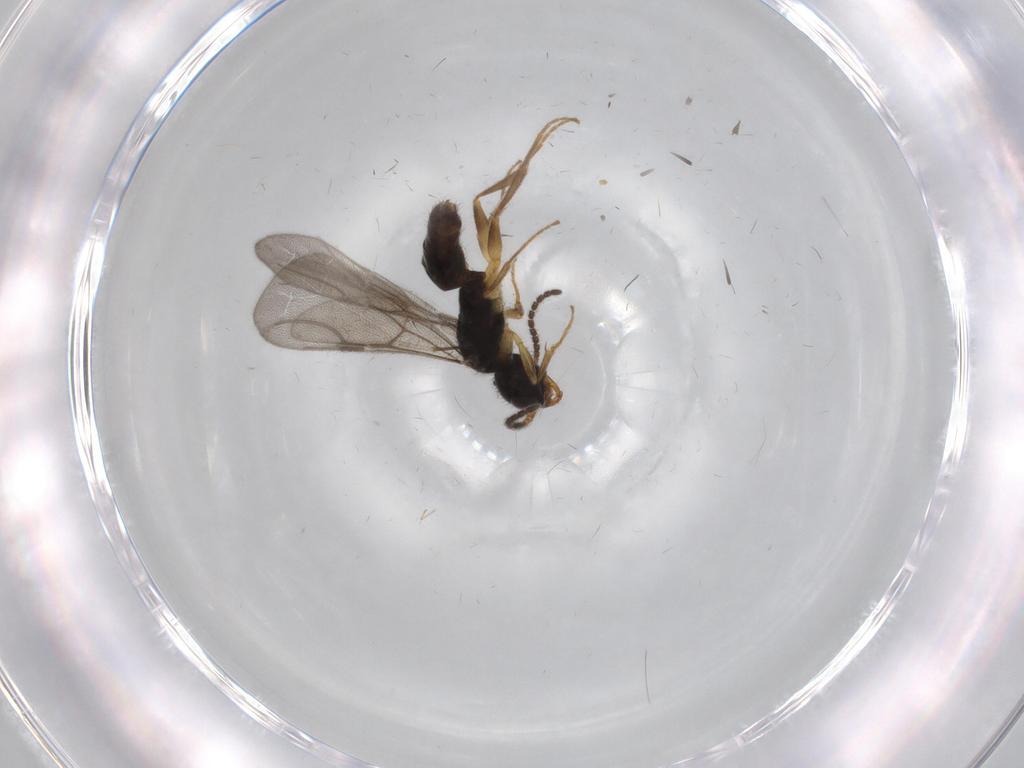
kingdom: Animalia
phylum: Arthropoda
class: Insecta
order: Hymenoptera
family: Bethylidae
